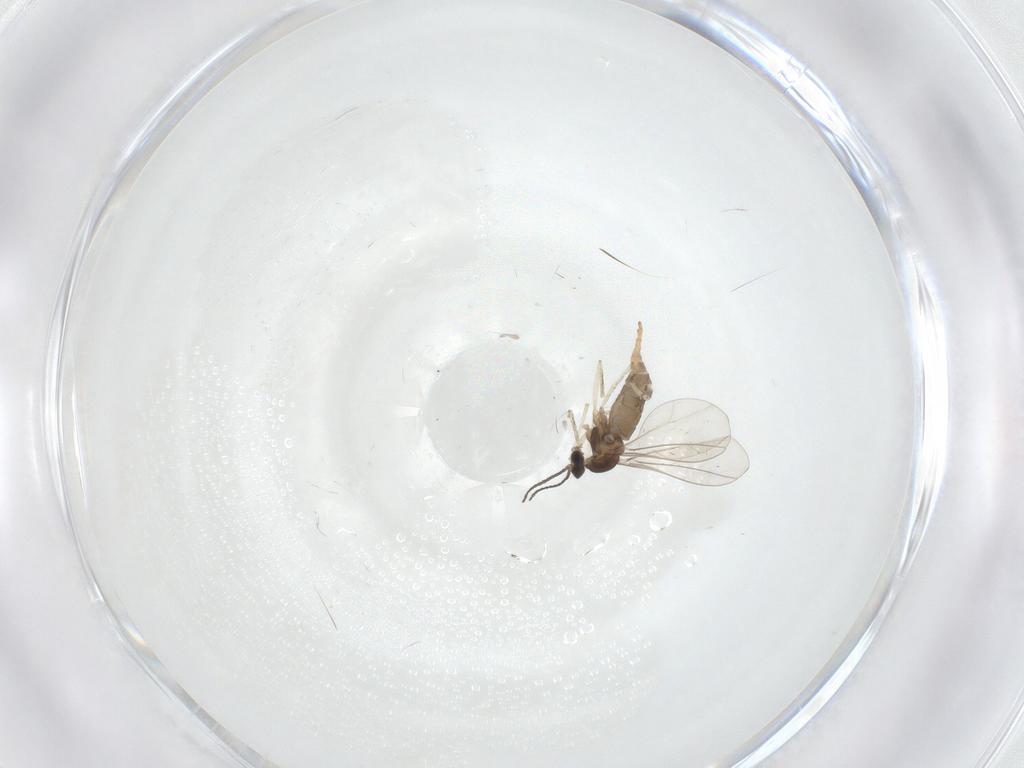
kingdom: Animalia
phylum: Arthropoda
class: Insecta
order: Diptera
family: Cecidomyiidae
